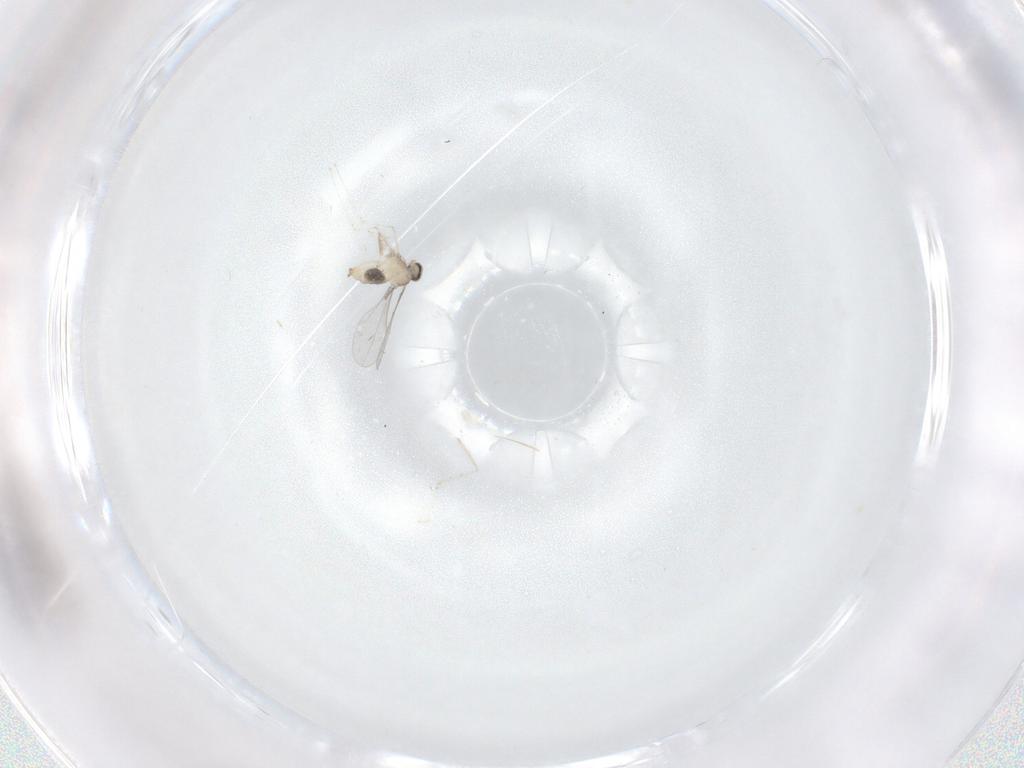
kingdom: Animalia
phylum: Arthropoda
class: Insecta
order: Diptera
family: Cecidomyiidae
